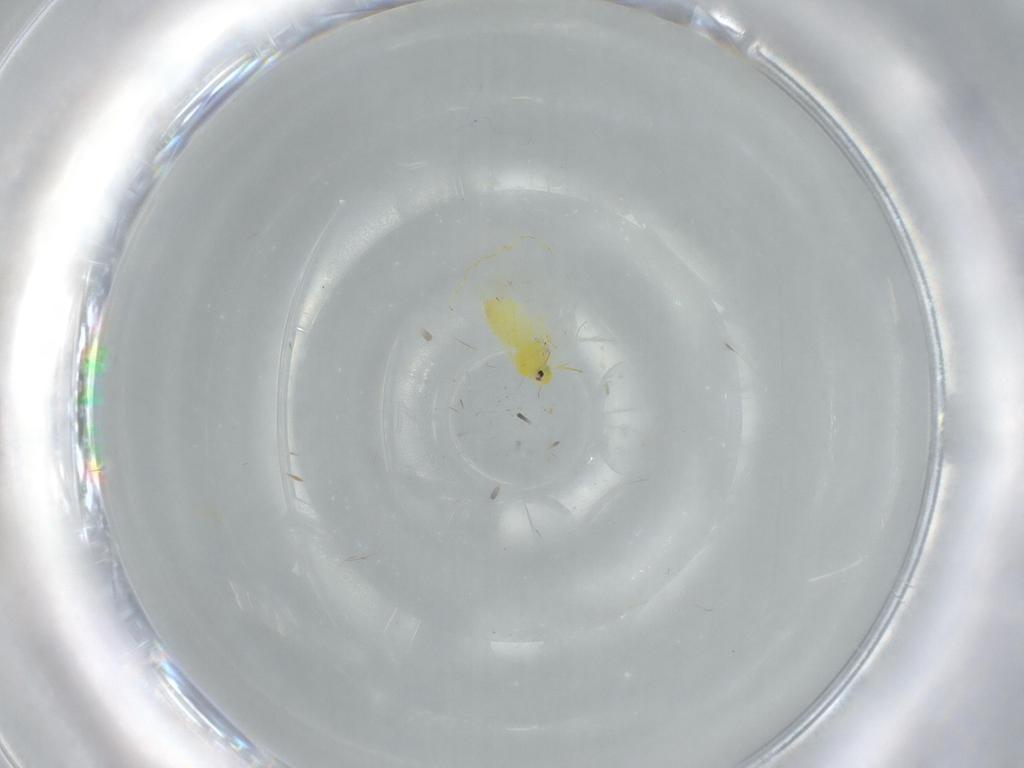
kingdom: Animalia
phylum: Arthropoda
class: Insecta
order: Hemiptera
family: Aleyrodidae
